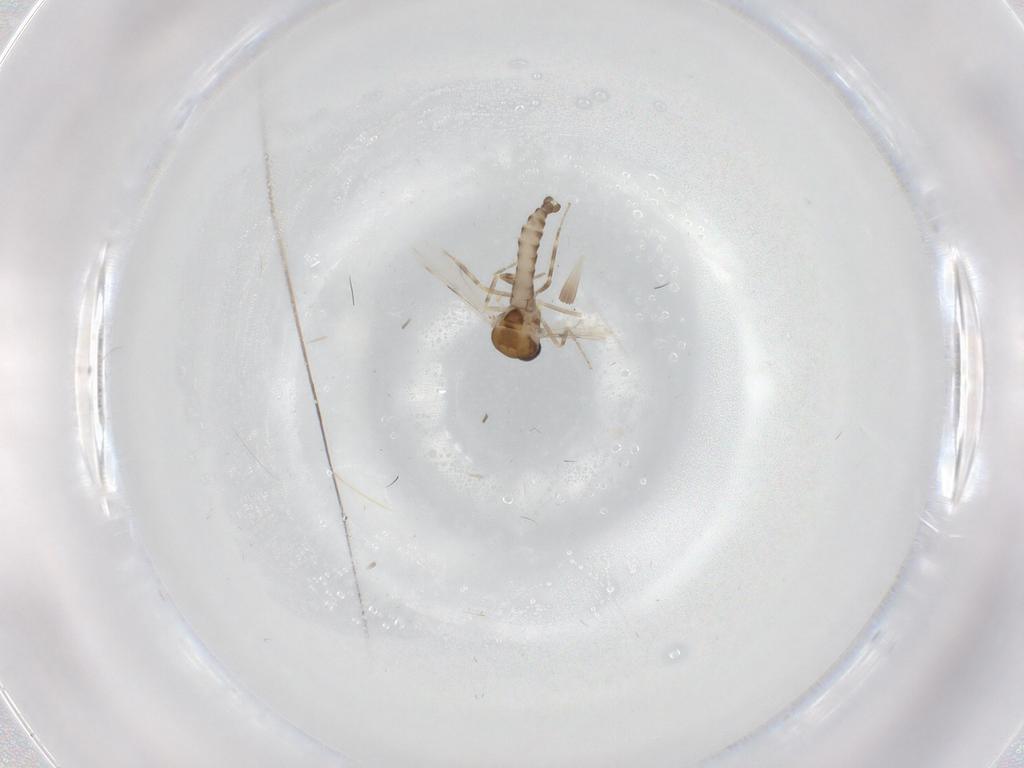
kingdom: Animalia
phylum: Arthropoda
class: Insecta
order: Diptera
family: Ceratopogonidae
